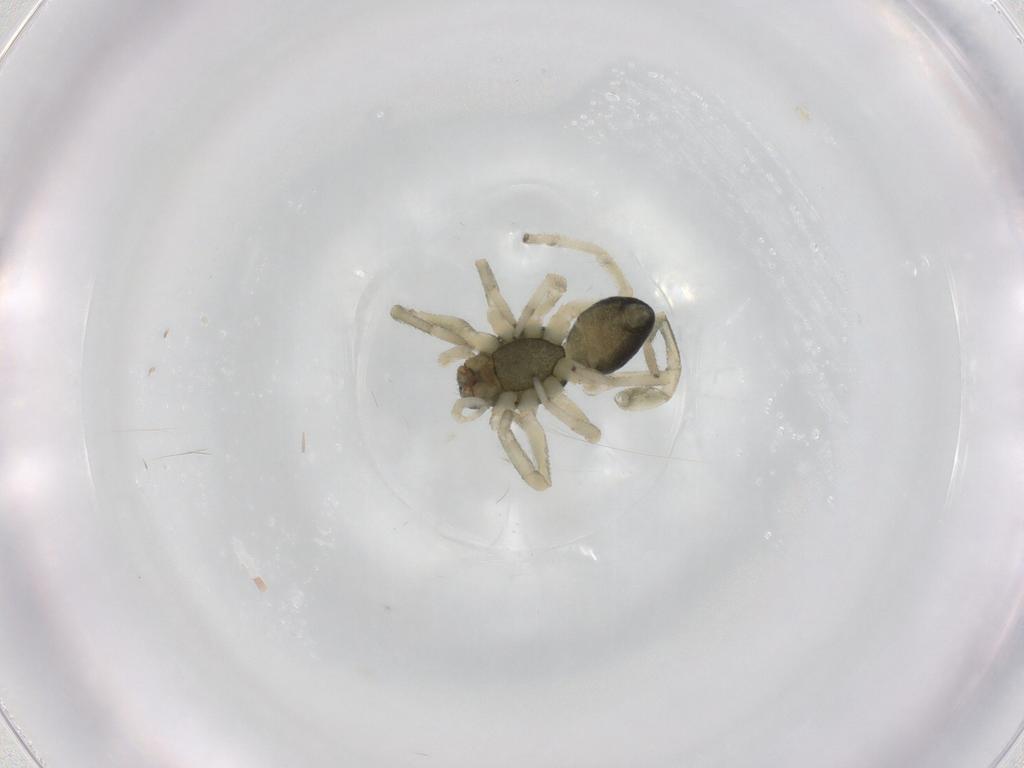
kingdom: Animalia
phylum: Arthropoda
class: Arachnida
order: Araneae
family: Trachelidae
